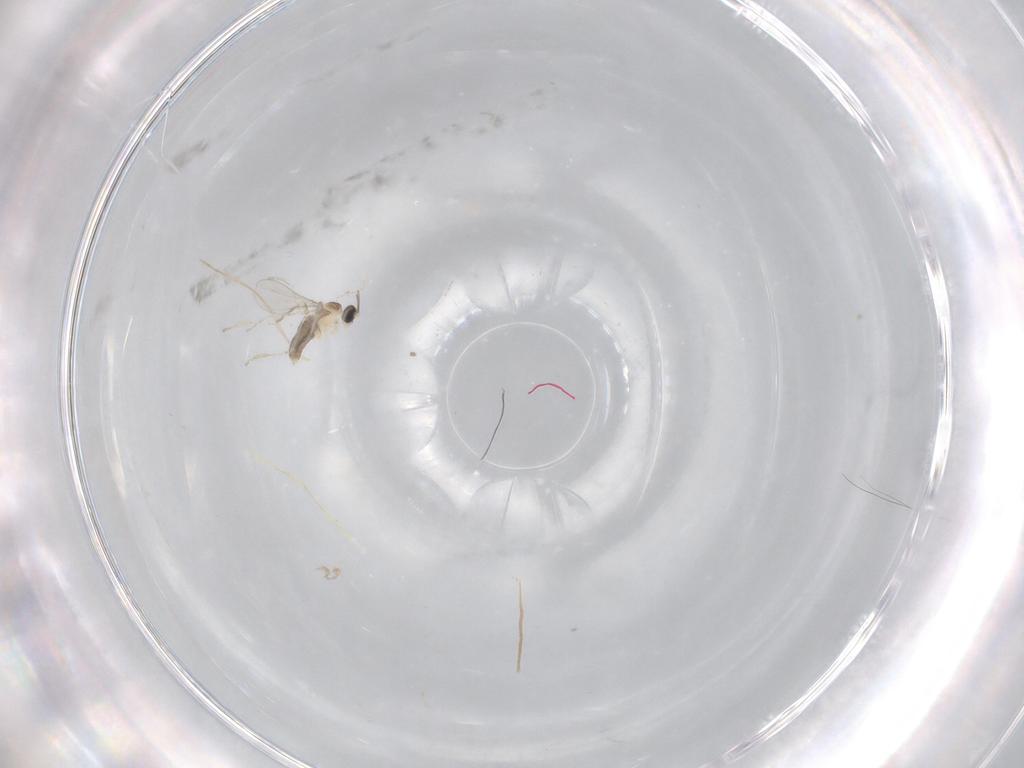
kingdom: Animalia
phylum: Arthropoda
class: Insecta
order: Diptera
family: Cecidomyiidae
